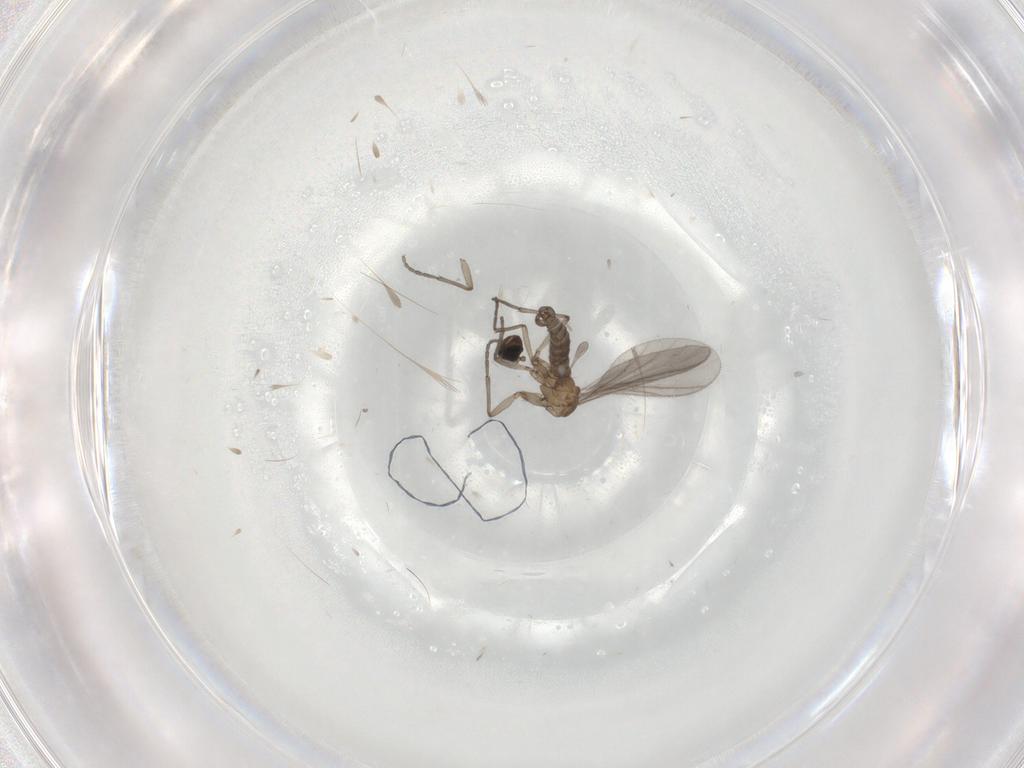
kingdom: Animalia
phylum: Arthropoda
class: Insecta
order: Diptera
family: Sciaridae
